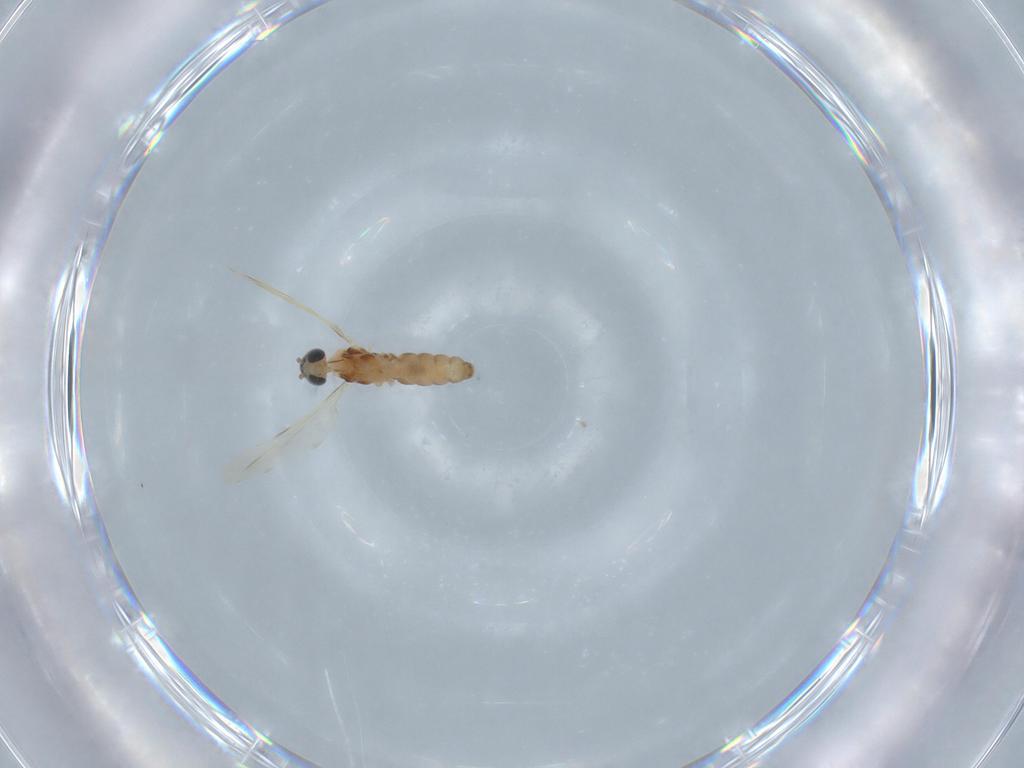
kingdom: Animalia
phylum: Arthropoda
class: Insecta
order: Diptera
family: Cecidomyiidae
